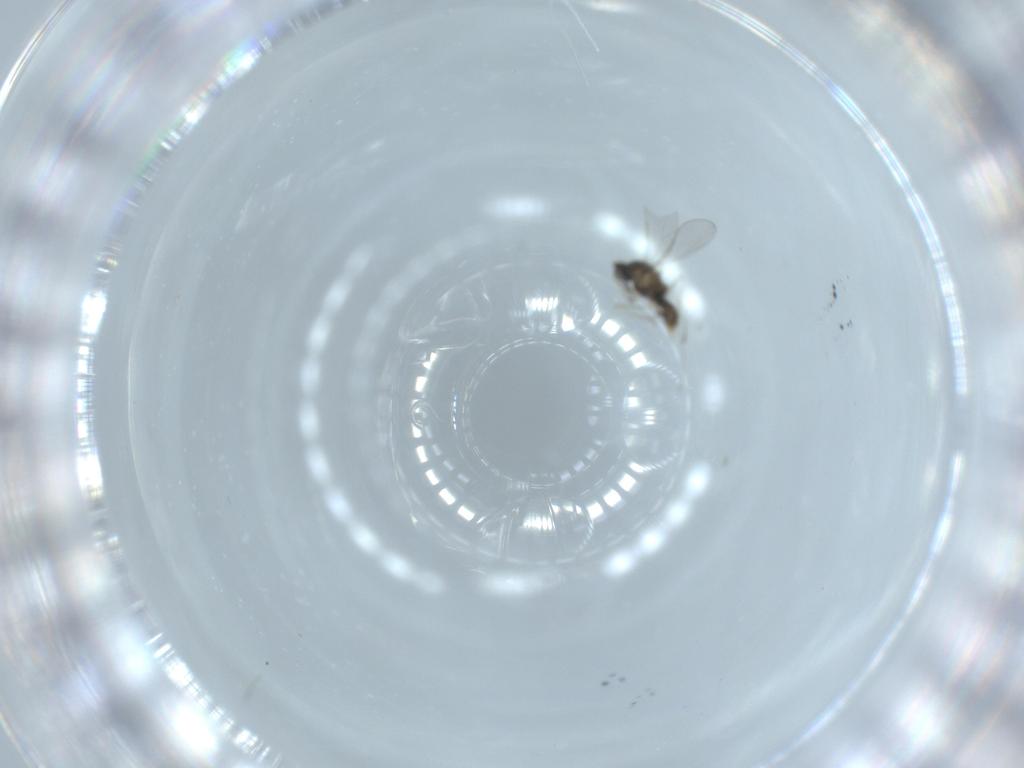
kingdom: Animalia
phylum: Arthropoda
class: Insecta
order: Diptera
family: Cecidomyiidae
